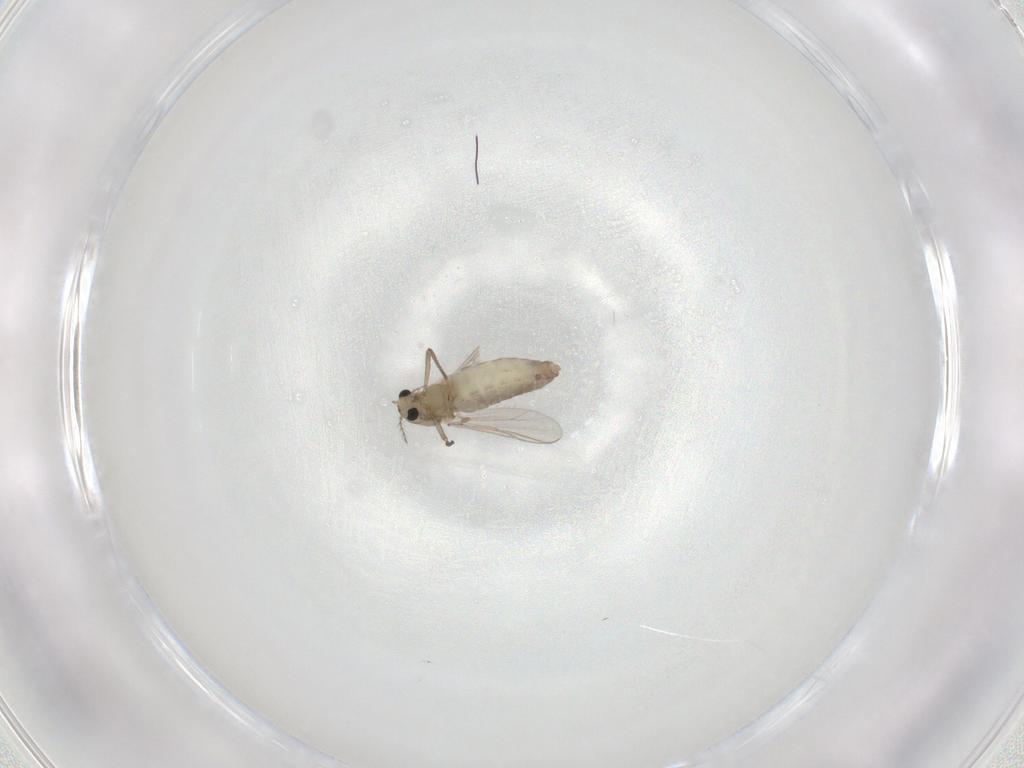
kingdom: Animalia
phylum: Arthropoda
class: Insecta
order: Diptera
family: Chironomidae
